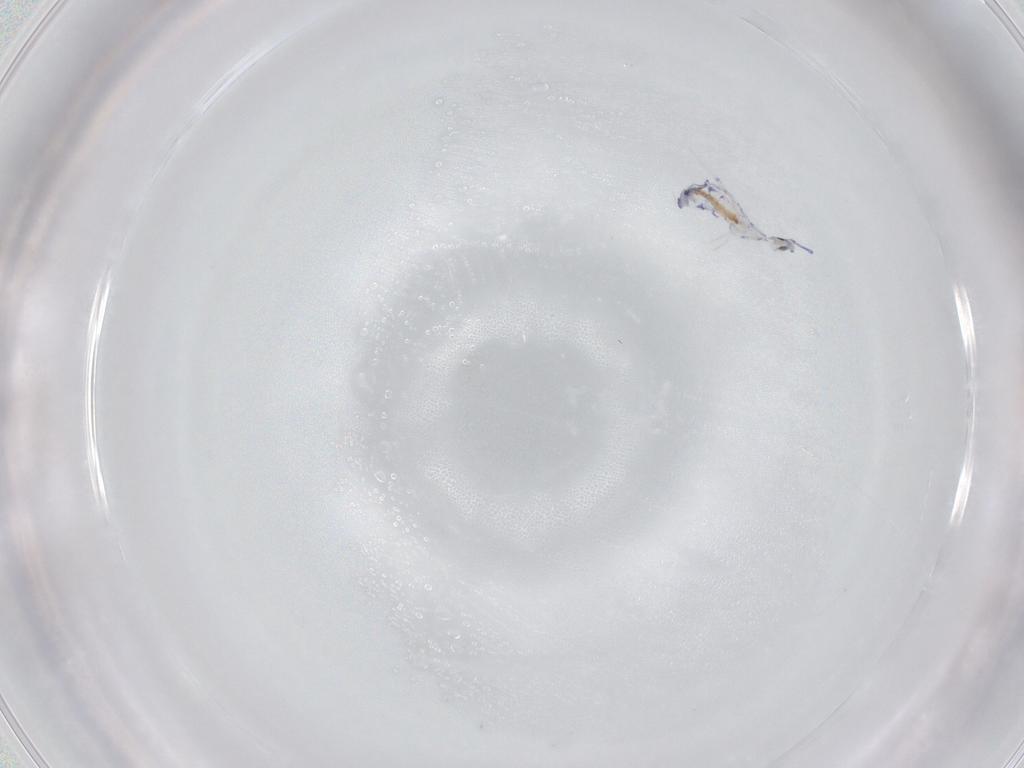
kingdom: Animalia
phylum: Arthropoda
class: Collembola
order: Entomobryomorpha
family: Entomobryidae
